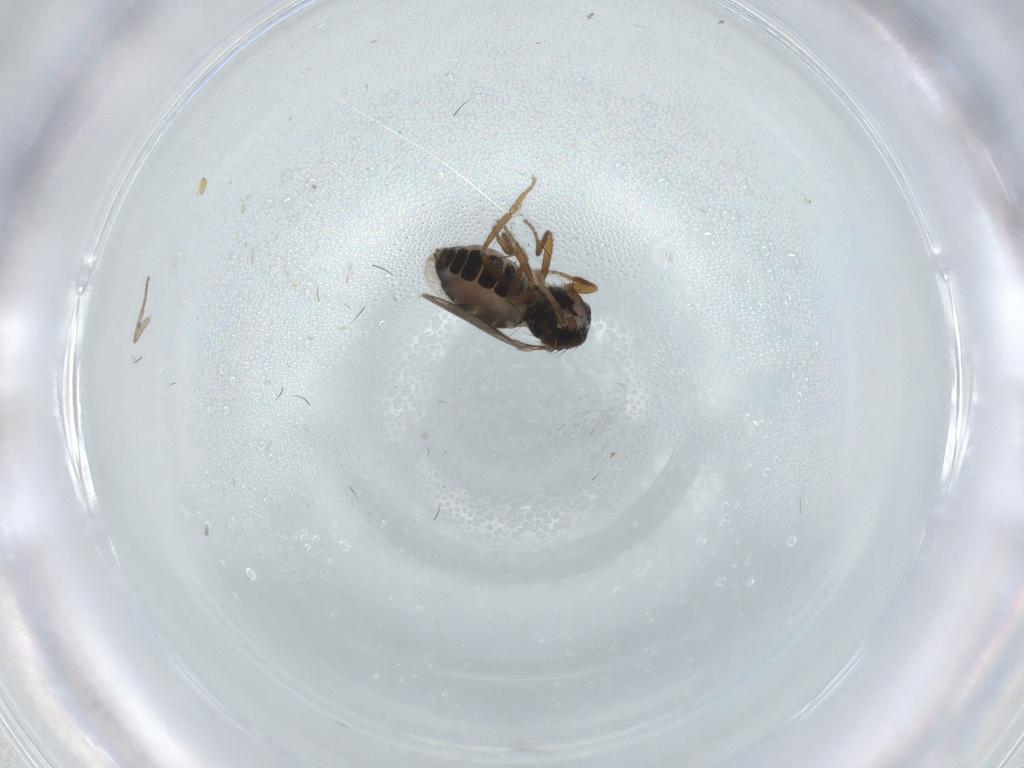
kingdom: Animalia
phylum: Arthropoda
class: Insecta
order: Diptera
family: Sphaeroceridae
